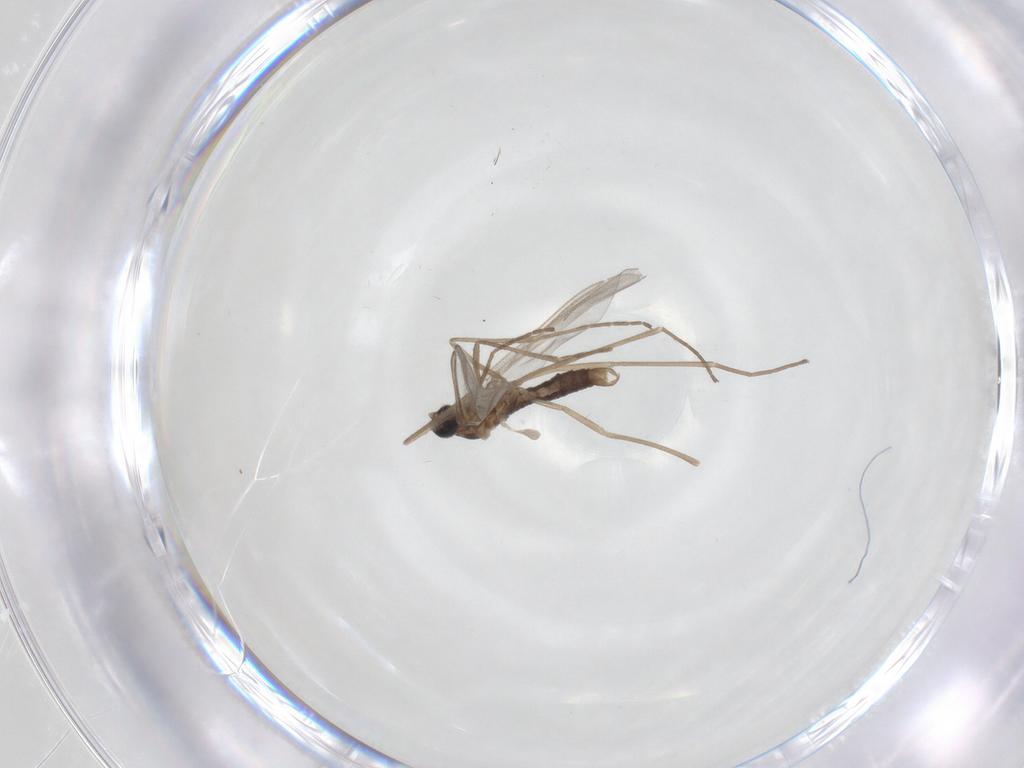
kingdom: Animalia
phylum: Arthropoda
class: Insecta
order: Diptera
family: Cecidomyiidae
